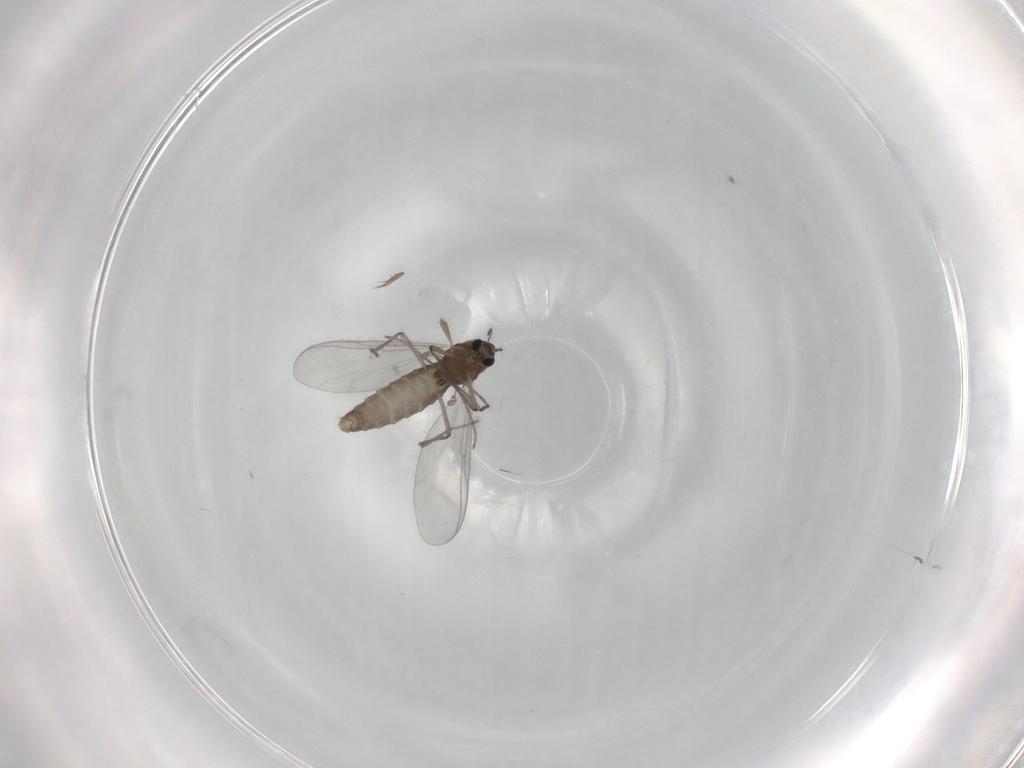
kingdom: Animalia
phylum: Arthropoda
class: Insecta
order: Diptera
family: Chironomidae
